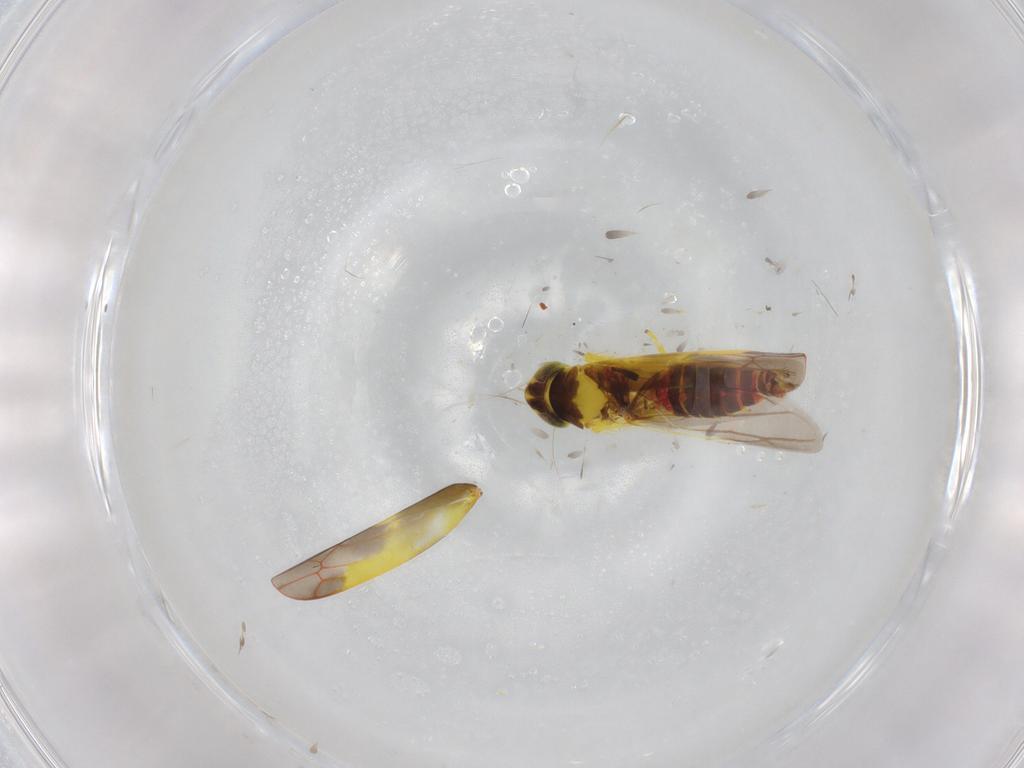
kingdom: Animalia
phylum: Arthropoda
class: Insecta
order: Hemiptera
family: Cicadellidae
